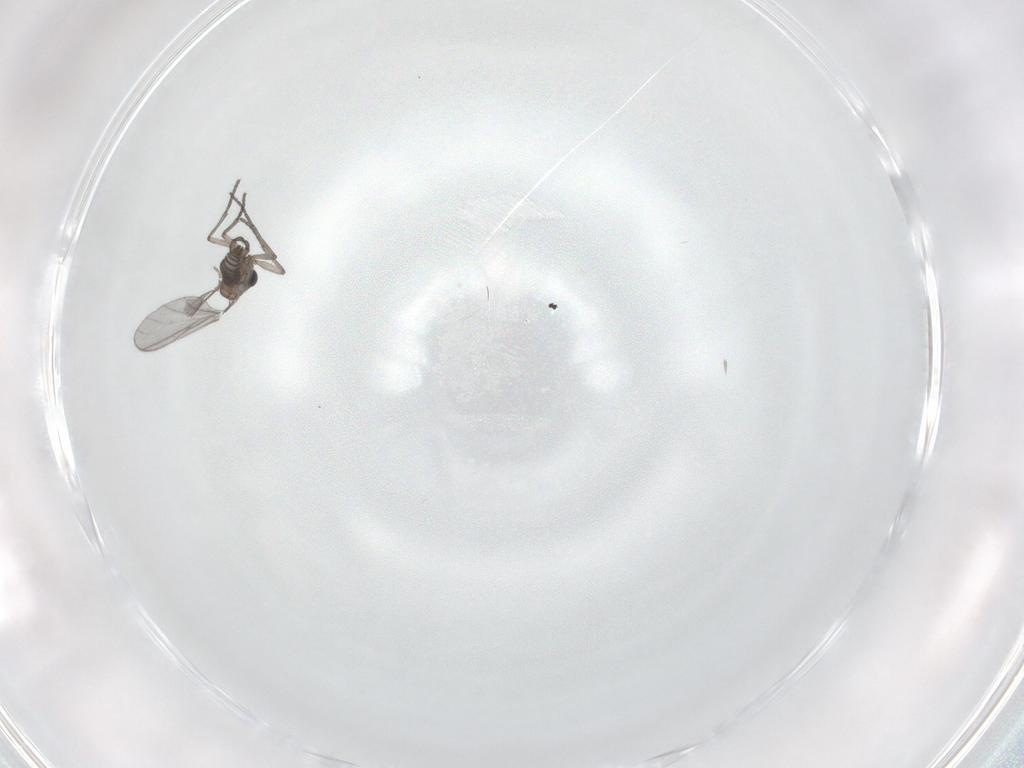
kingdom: Animalia
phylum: Arthropoda
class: Insecta
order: Diptera
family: Sciaridae
